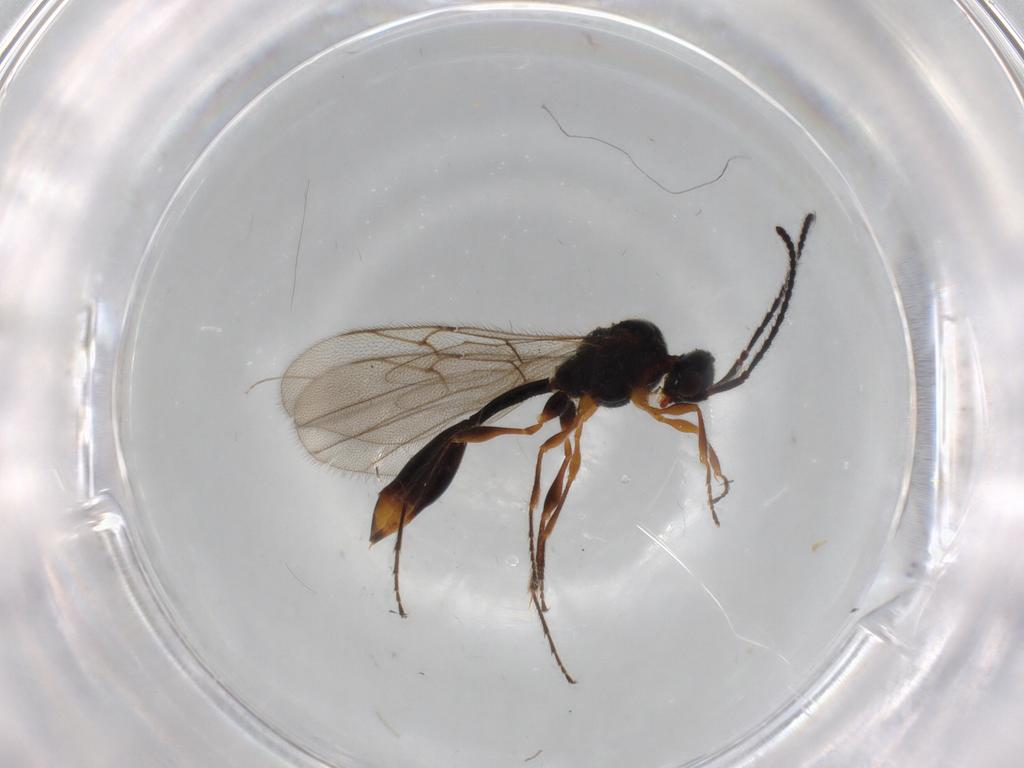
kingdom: Animalia
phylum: Arthropoda
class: Insecta
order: Hymenoptera
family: Diapriidae
